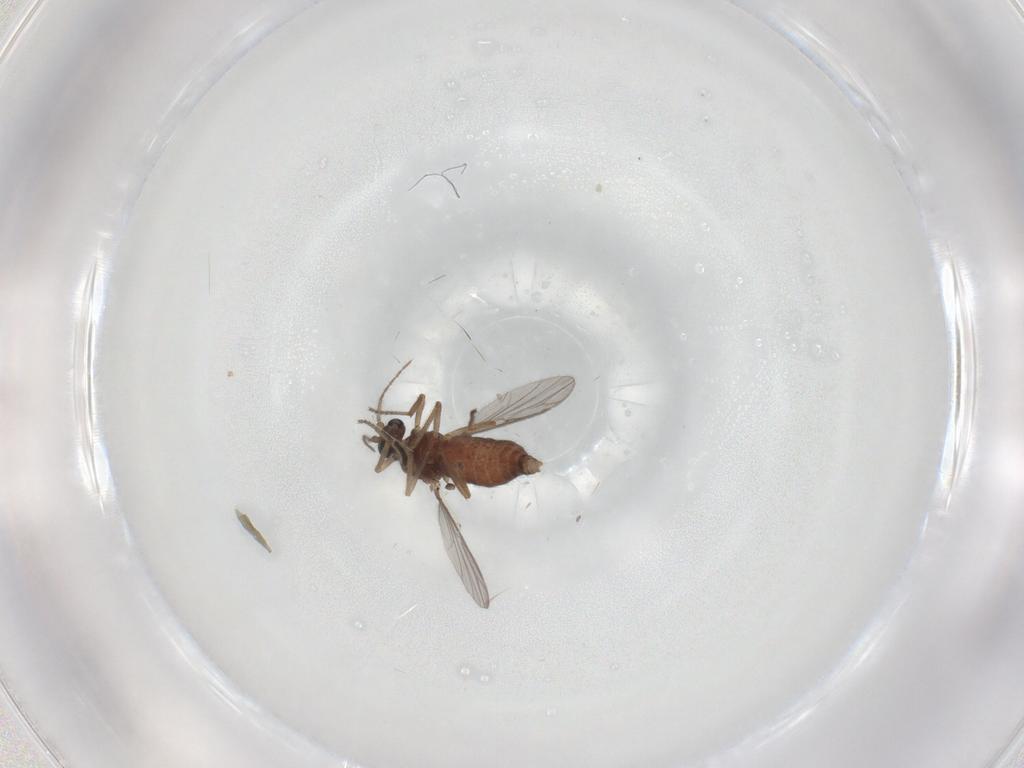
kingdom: Animalia
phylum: Arthropoda
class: Insecta
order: Diptera
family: Ceratopogonidae
